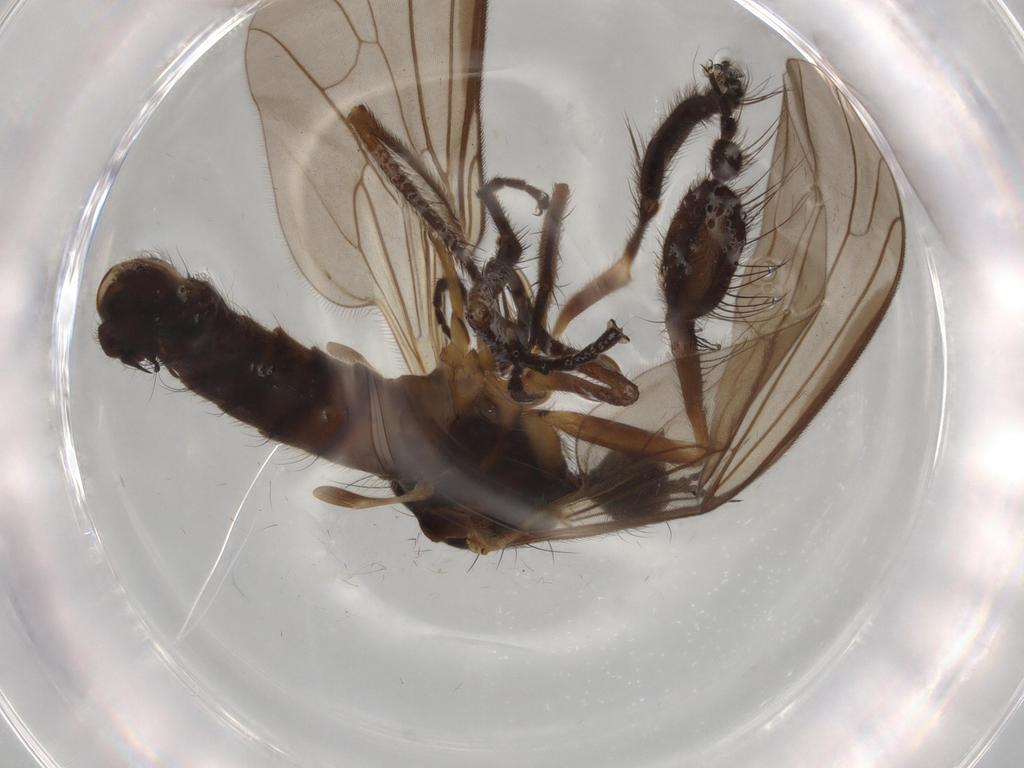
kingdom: Animalia
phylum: Arthropoda
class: Insecta
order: Diptera
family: Empididae
